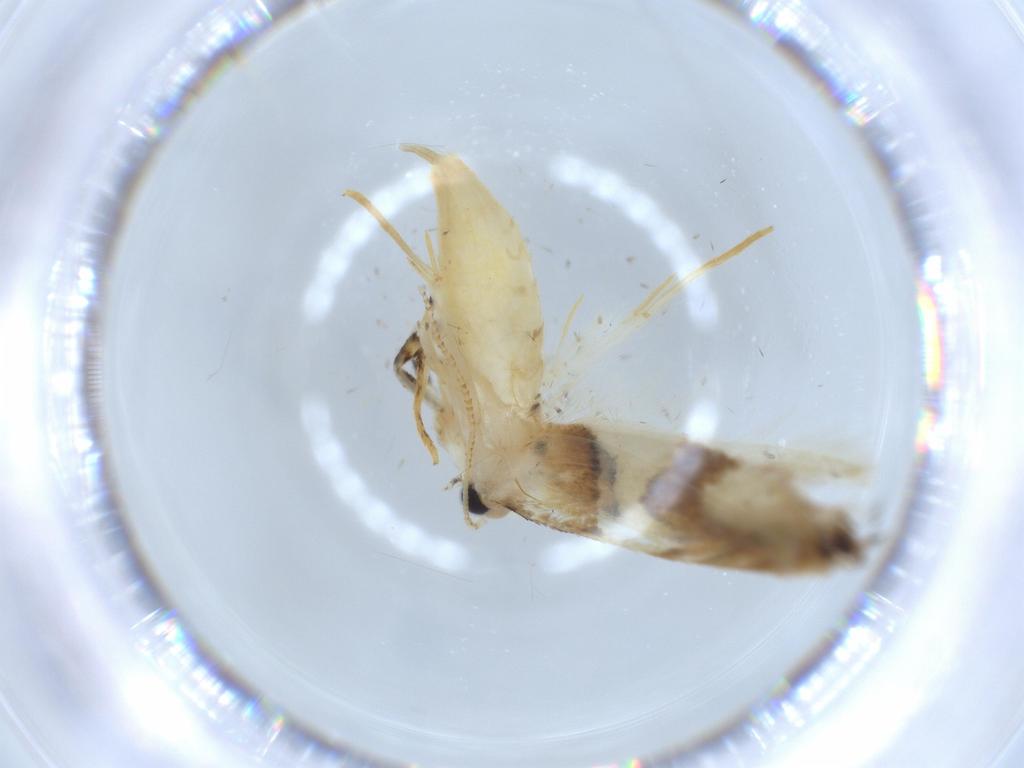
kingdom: Animalia
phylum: Arthropoda
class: Insecta
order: Lepidoptera
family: Tineidae
